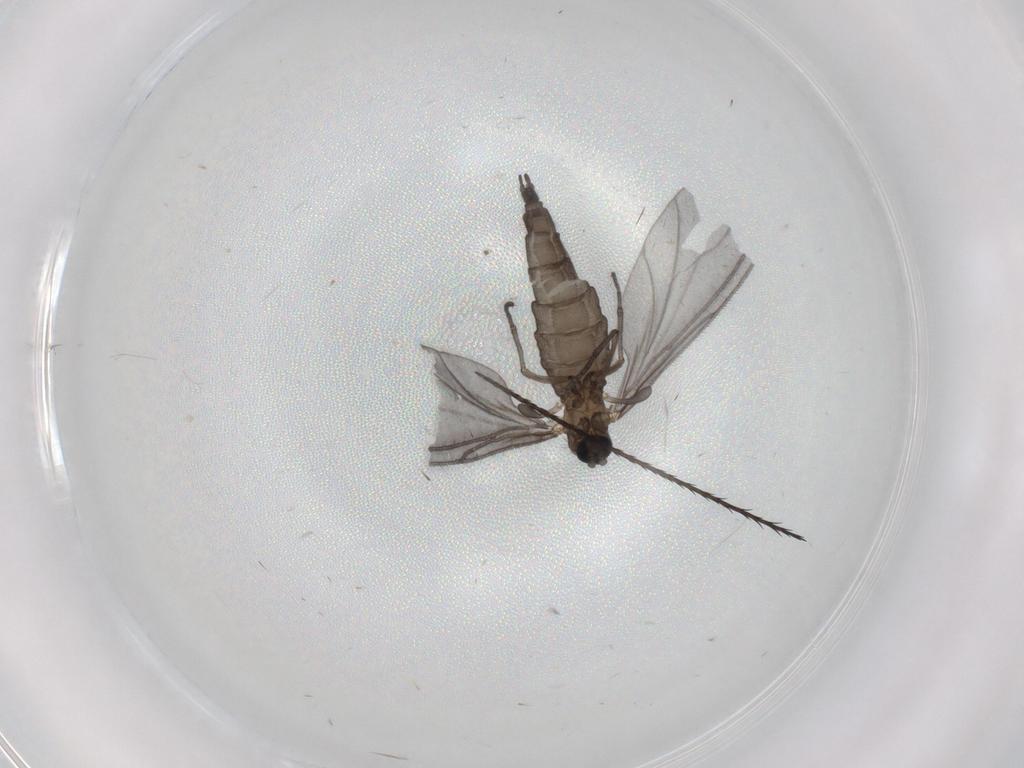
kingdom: Animalia
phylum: Arthropoda
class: Insecta
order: Diptera
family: Sciaridae
